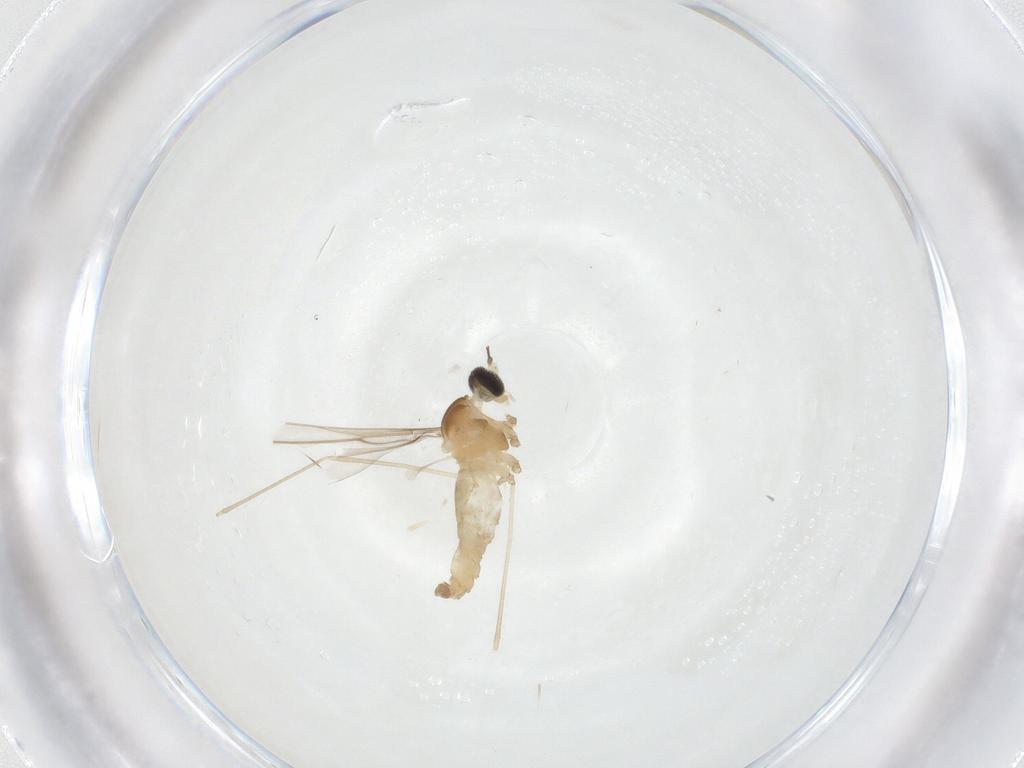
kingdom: Animalia
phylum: Arthropoda
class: Insecta
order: Diptera
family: Cecidomyiidae
